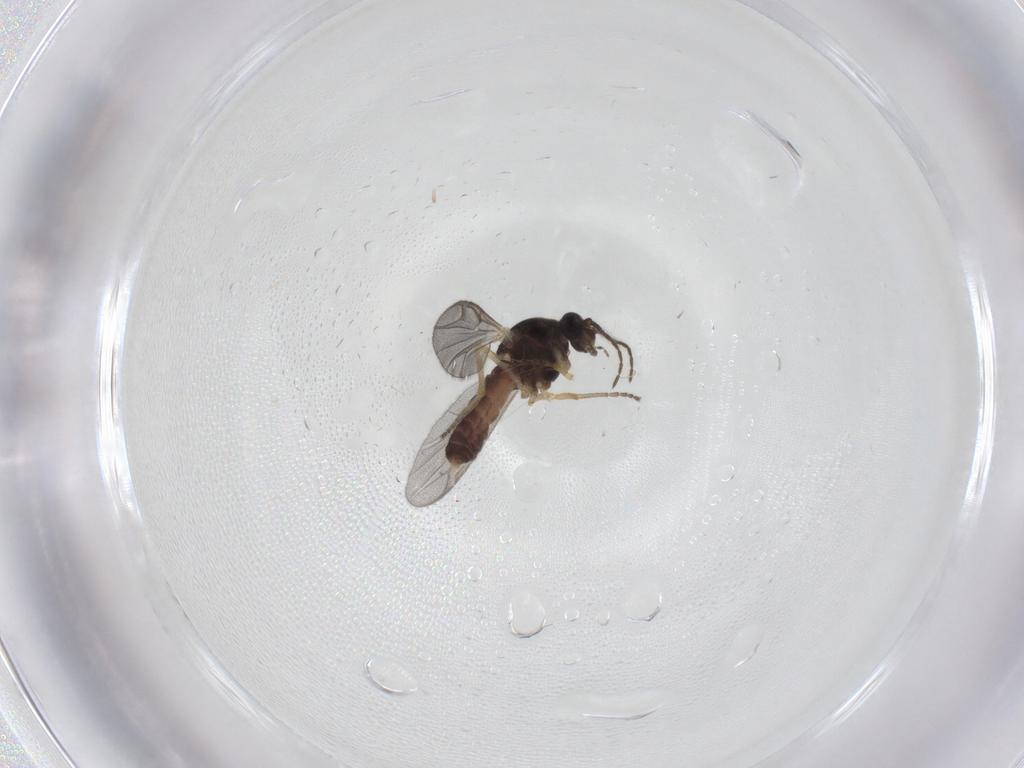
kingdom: Animalia
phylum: Arthropoda
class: Insecta
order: Diptera
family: Ceratopogonidae
